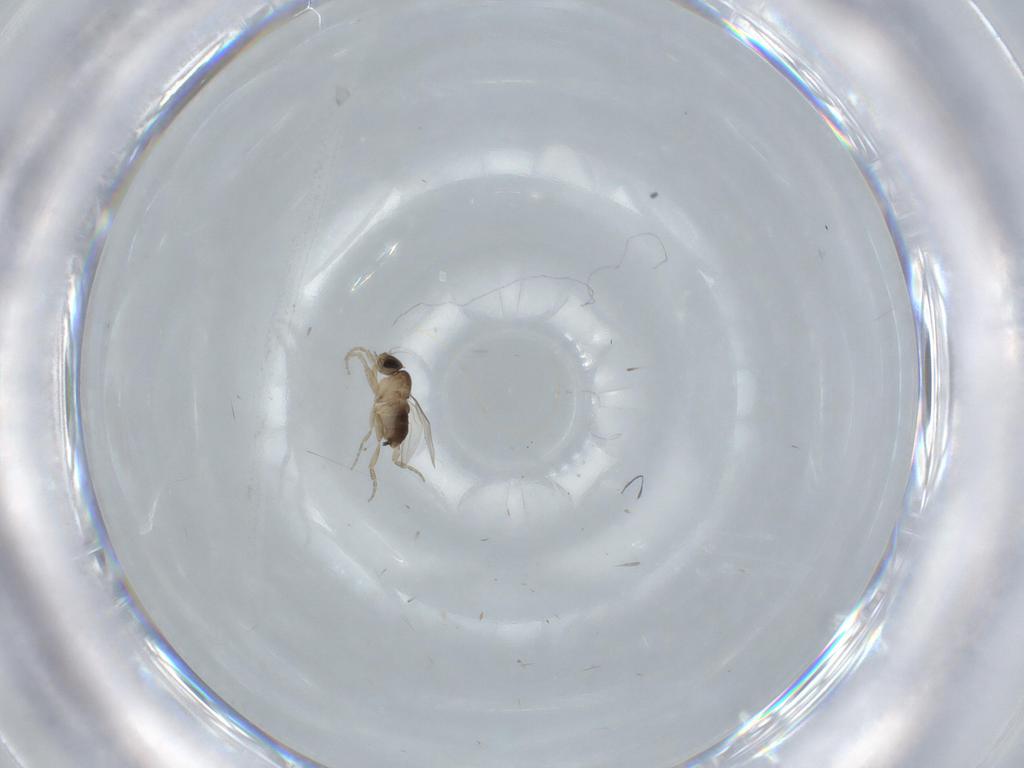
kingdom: Animalia
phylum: Arthropoda
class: Insecta
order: Diptera
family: Phoridae
